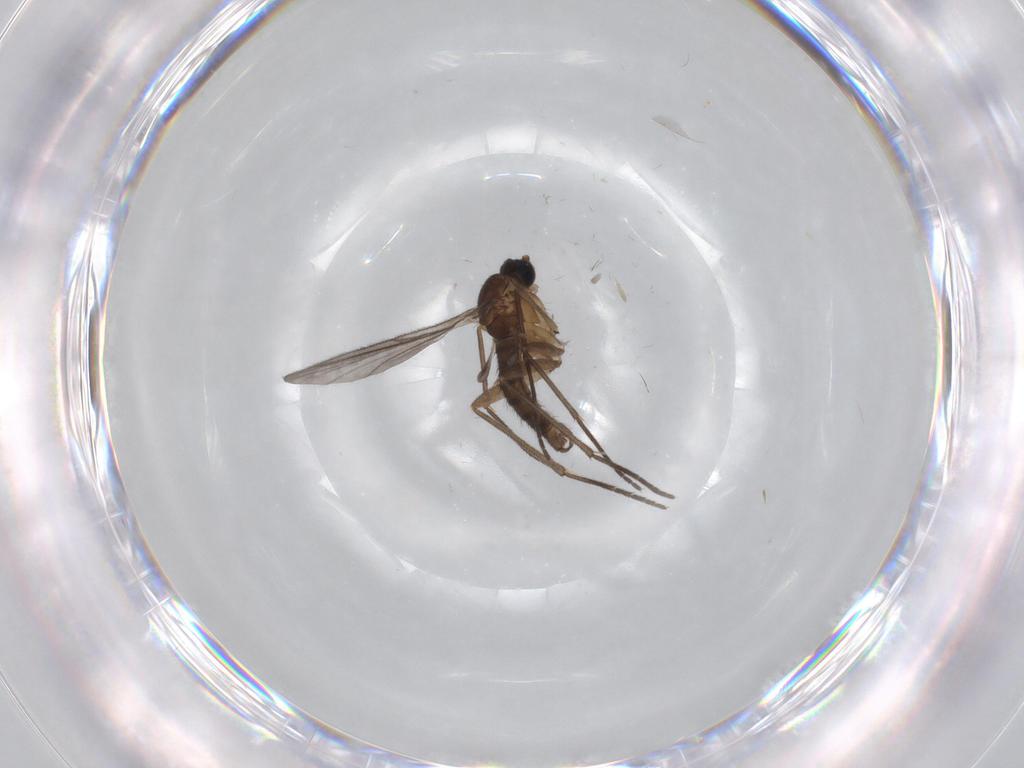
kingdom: Animalia
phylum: Arthropoda
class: Insecta
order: Diptera
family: Chironomidae
